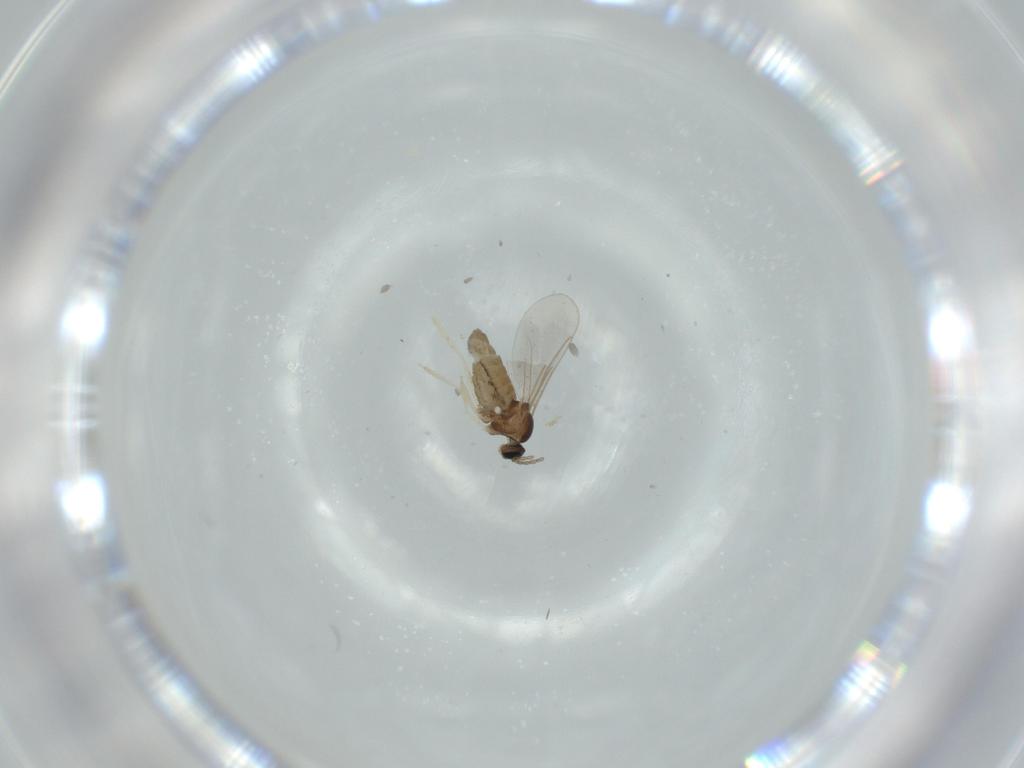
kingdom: Animalia
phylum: Arthropoda
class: Insecta
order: Diptera
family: Cecidomyiidae
